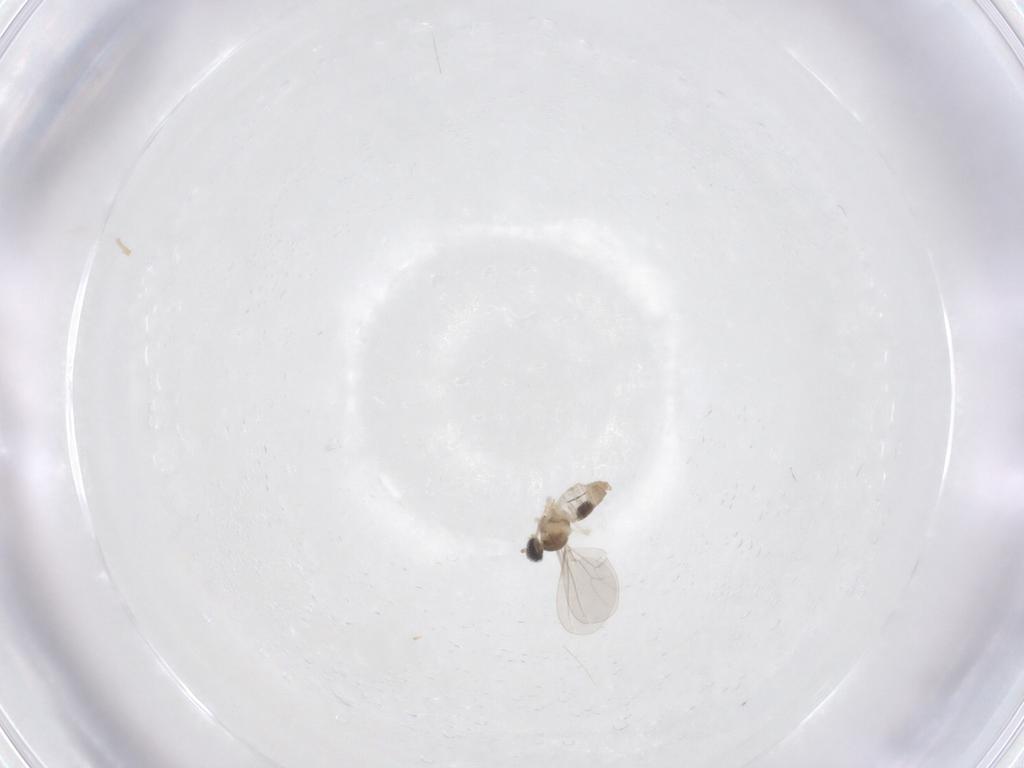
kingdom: Animalia
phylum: Arthropoda
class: Insecta
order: Diptera
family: Cecidomyiidae
